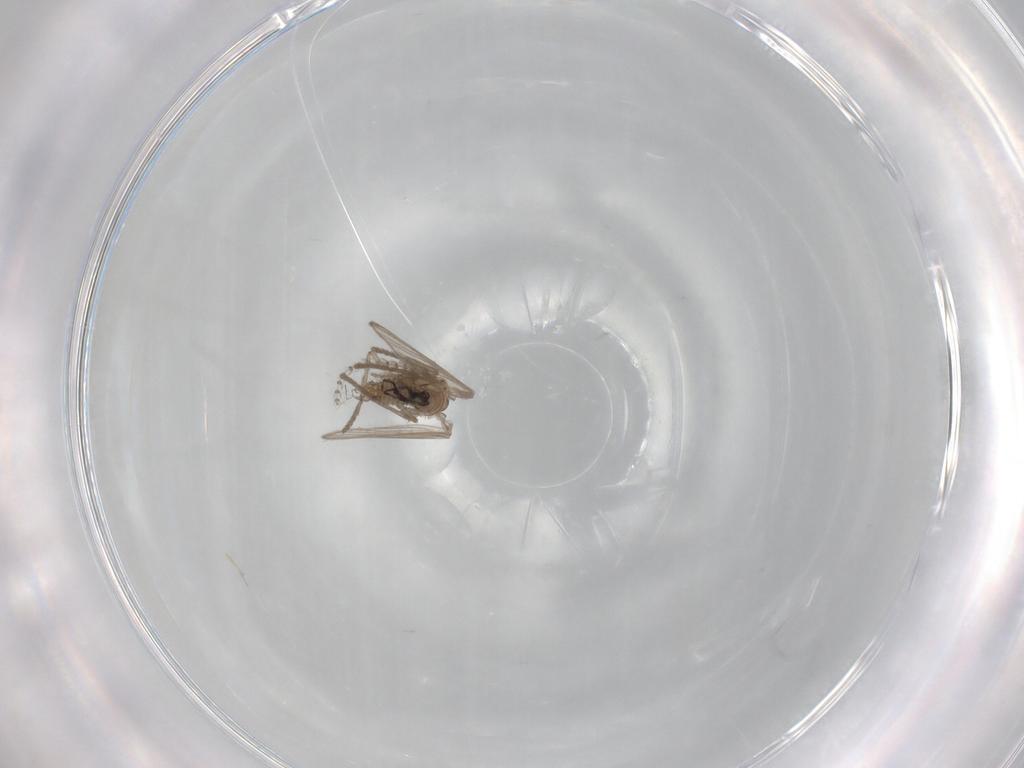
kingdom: Animalia
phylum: Arthropoda
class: Insecta
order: Diptera
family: Psychodidae
